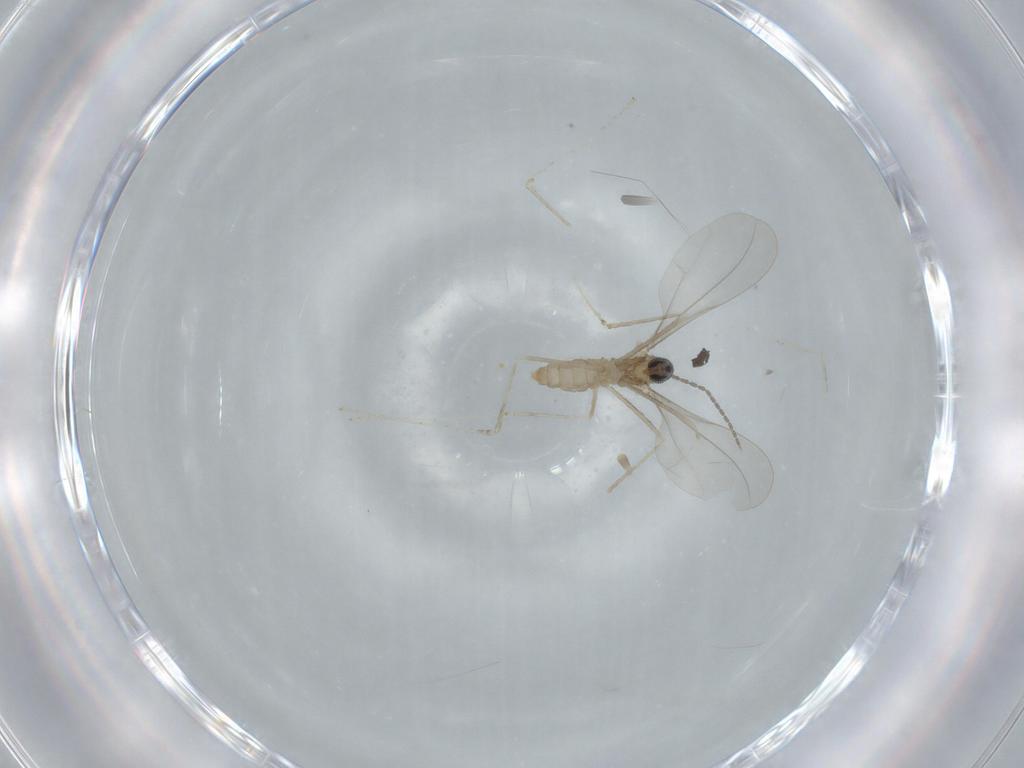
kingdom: Animalia
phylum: Arthropoda
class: Insecta
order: Diptera
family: Cecidomyiidae
